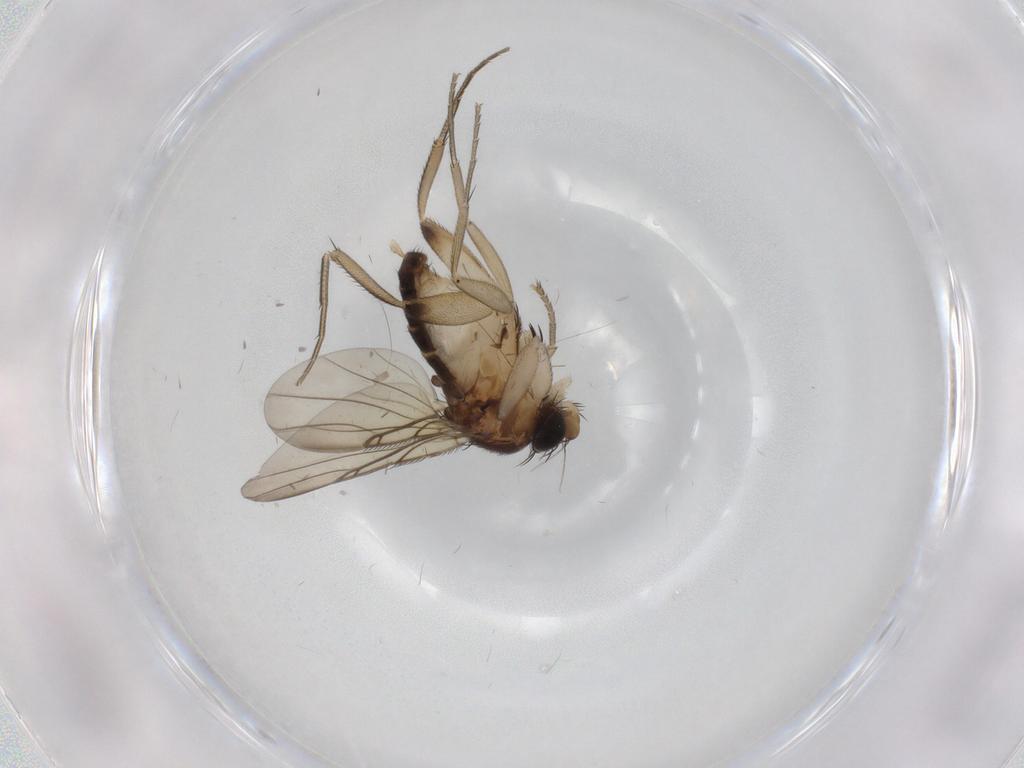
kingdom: Animalia
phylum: Arthropoda
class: Insecta
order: Diptera
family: Phoridae
